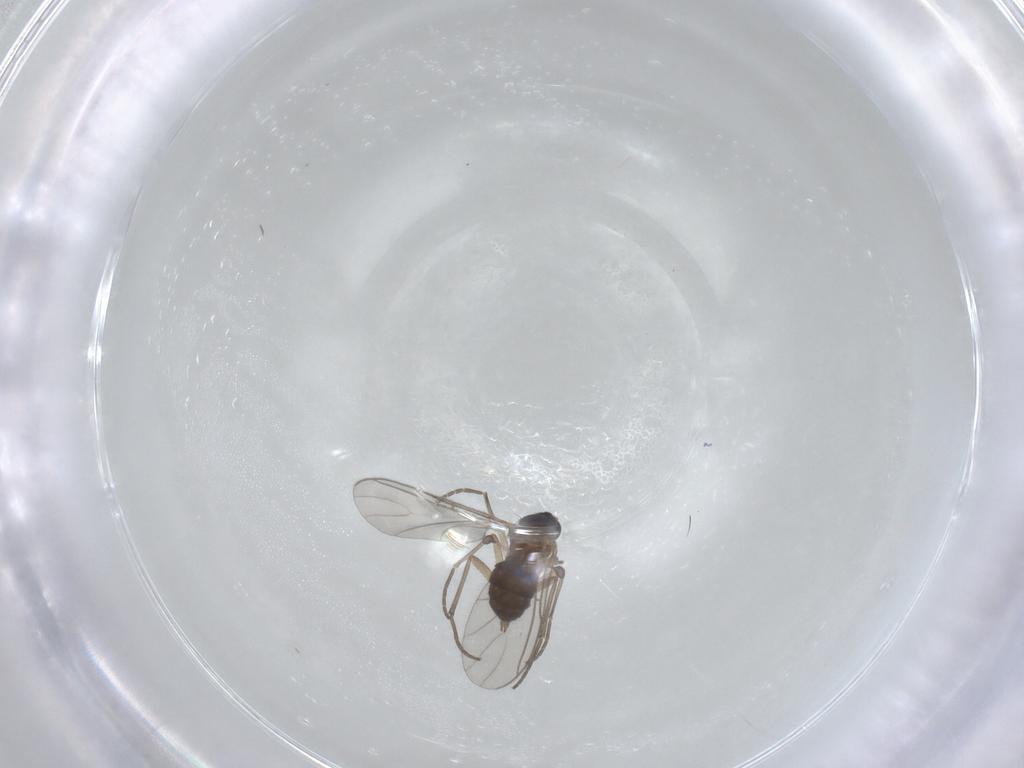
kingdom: Animalia
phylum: Arthropoda
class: Insecta
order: Diptera
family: Sciaridae
